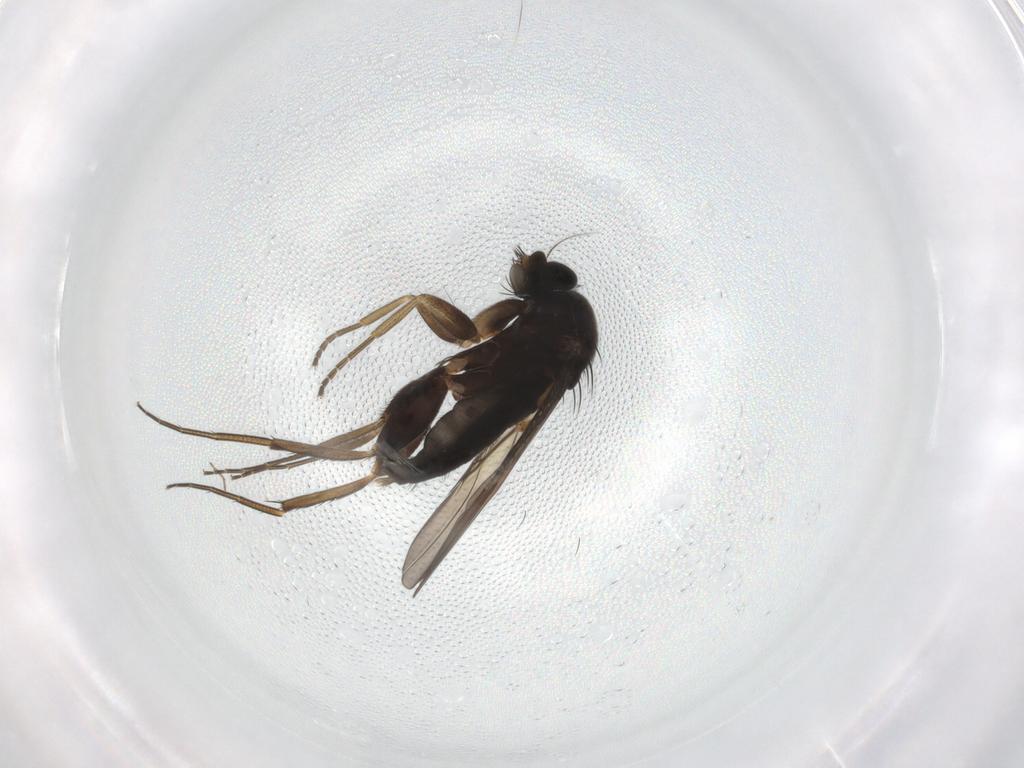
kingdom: Animalia
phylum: Arthropoda
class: Insecta
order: Diptera
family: Phoridae
